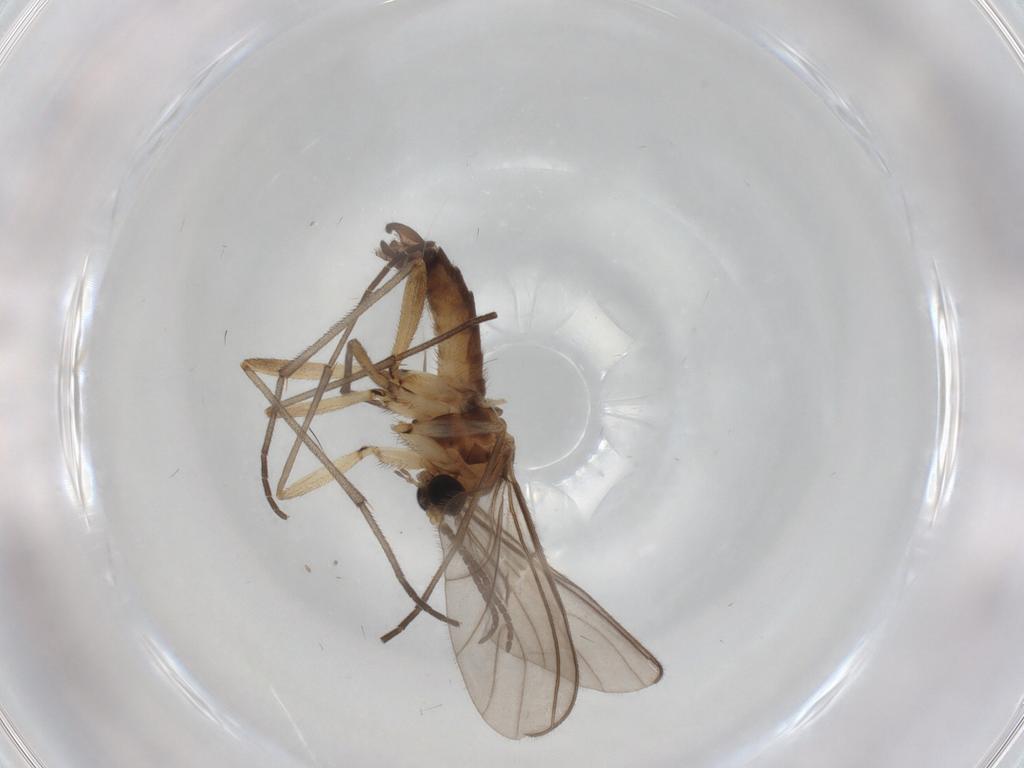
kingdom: Animalia
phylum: Arthropoda
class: Insecta
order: Diptera
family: Sciaridae
